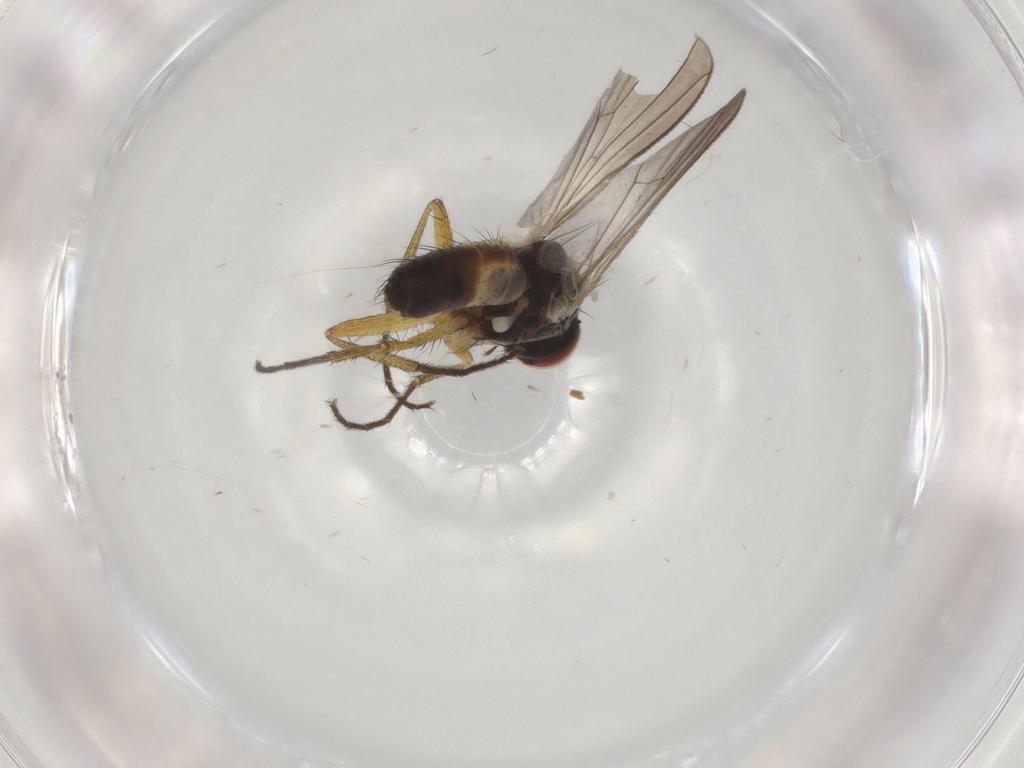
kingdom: Animalia
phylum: Arthropoda
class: Insecta
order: Diptera
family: Muscidae
